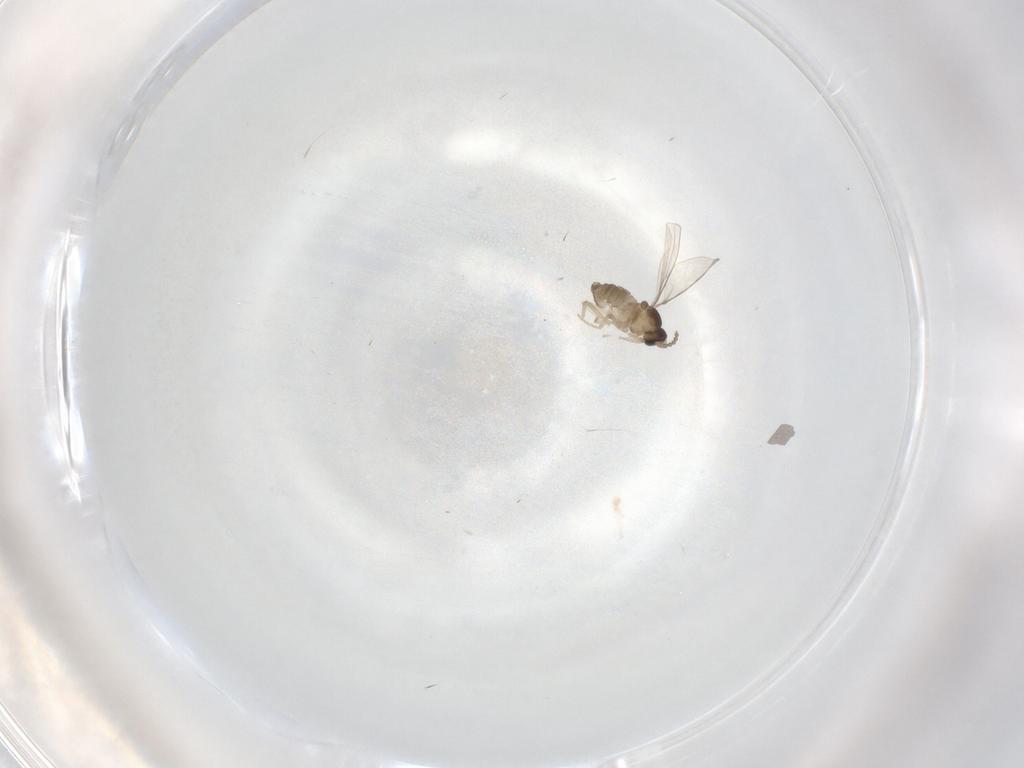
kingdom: Animalia
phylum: Arthropoda
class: Insecta
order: Diptera
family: Cecidomyiidae
